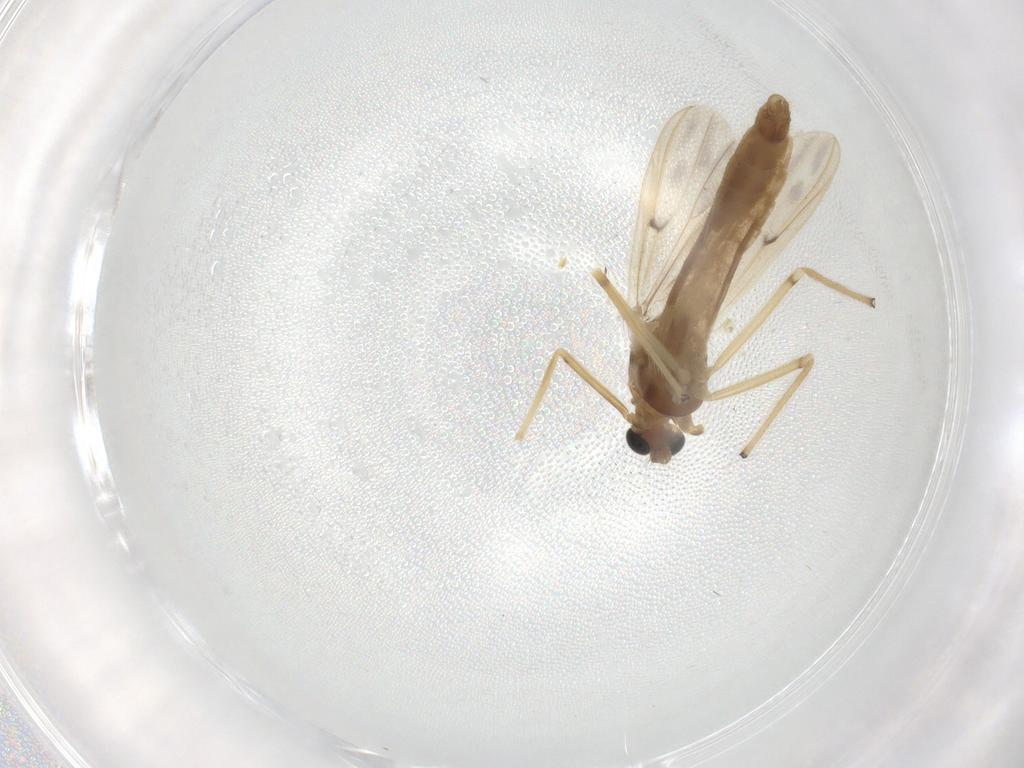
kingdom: Animalia
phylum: Arthropoda
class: Insecta
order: Diptera
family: Chironomidae
